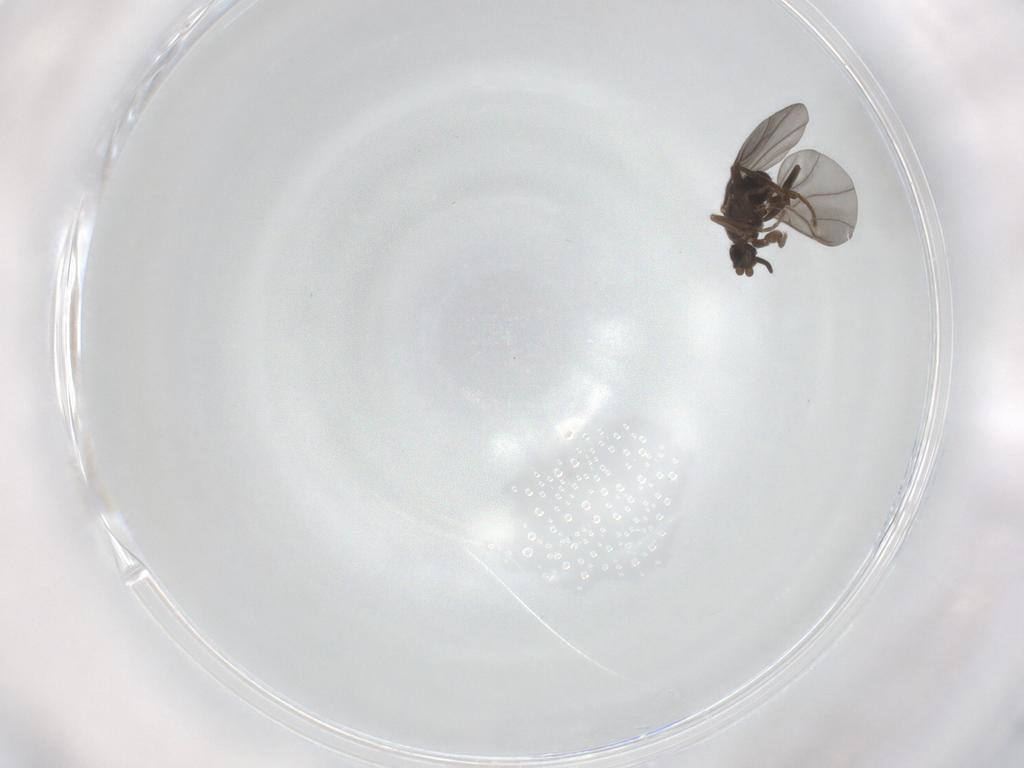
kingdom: Animalia
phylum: Arthropoda
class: Insecta
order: Diptera
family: Phoridae
